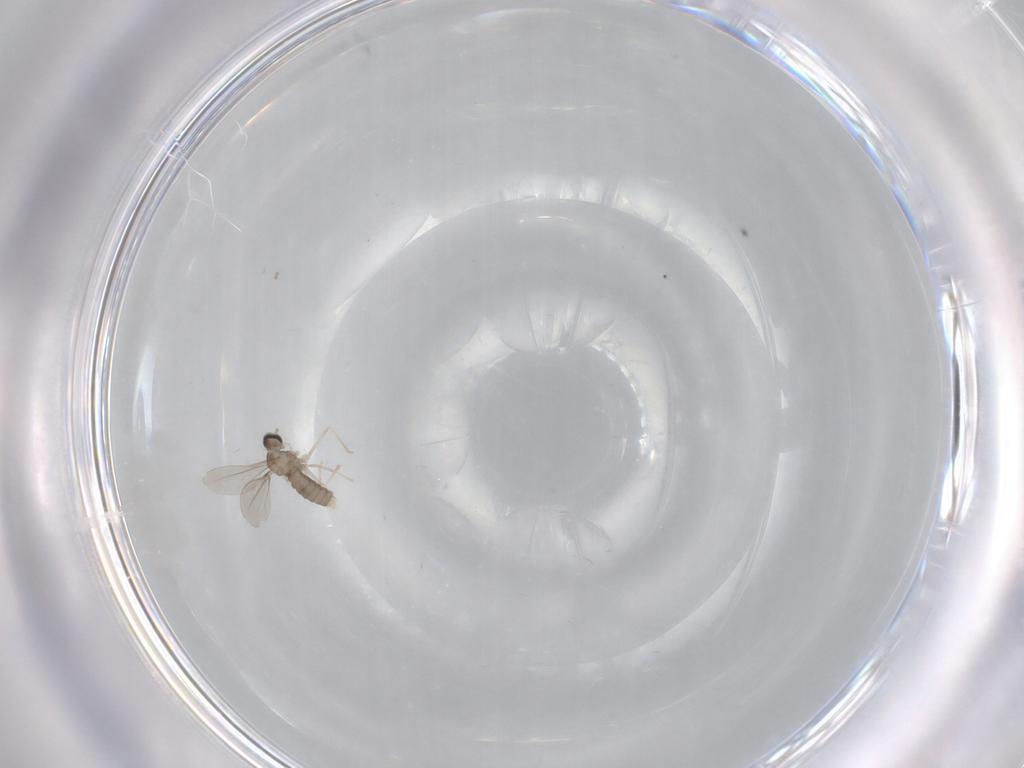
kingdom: Animalia
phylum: Arthropoda
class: Insecta
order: Diptera
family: Cecidomyiidae
